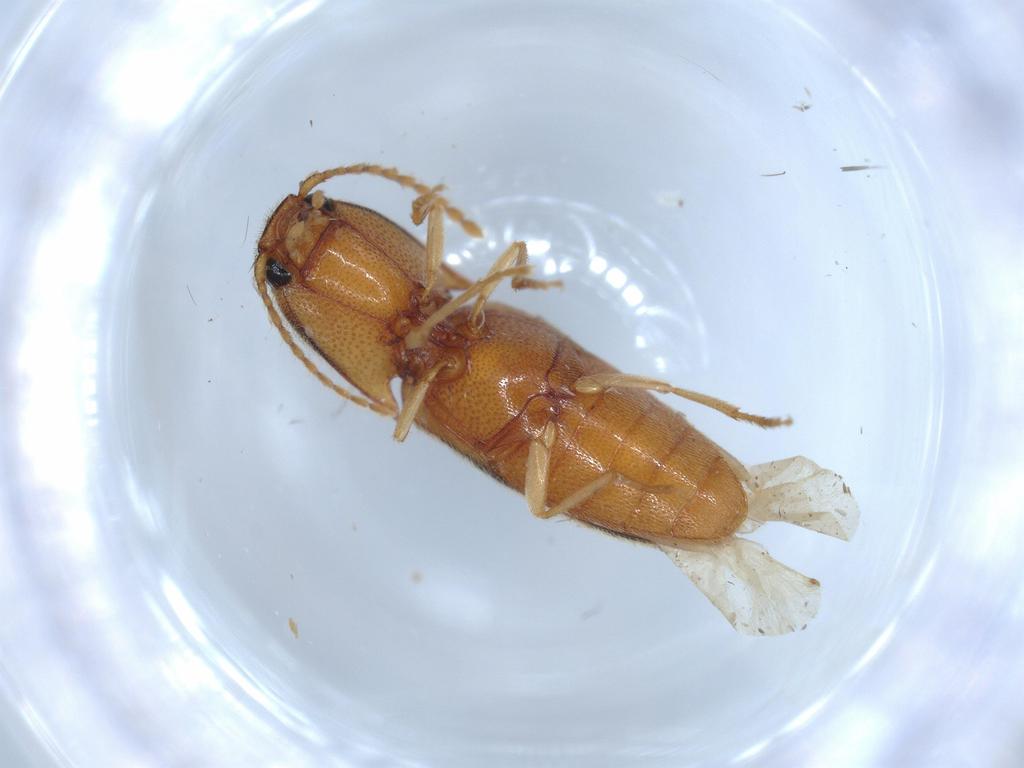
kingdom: Animalia
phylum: Arthropoda
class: Insecta
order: Coleoptera
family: Elateridae
